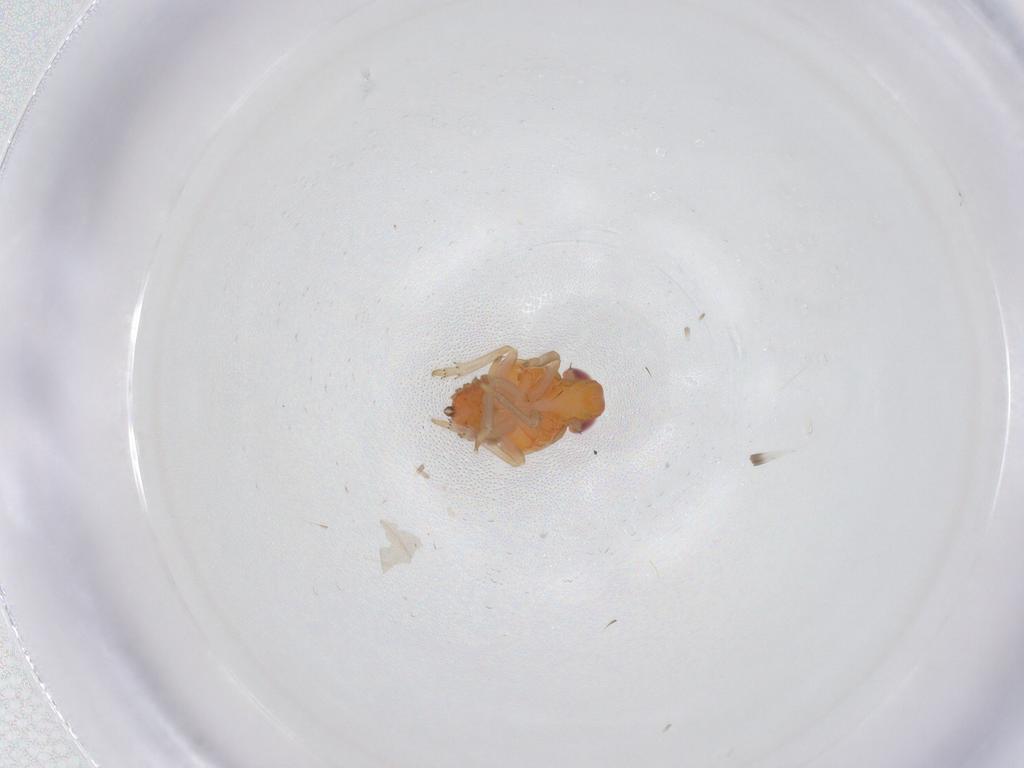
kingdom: Animalia
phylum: Arthropoda
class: Insecta
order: Hemiptera
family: Fulgoroidea_incertae_sedis
